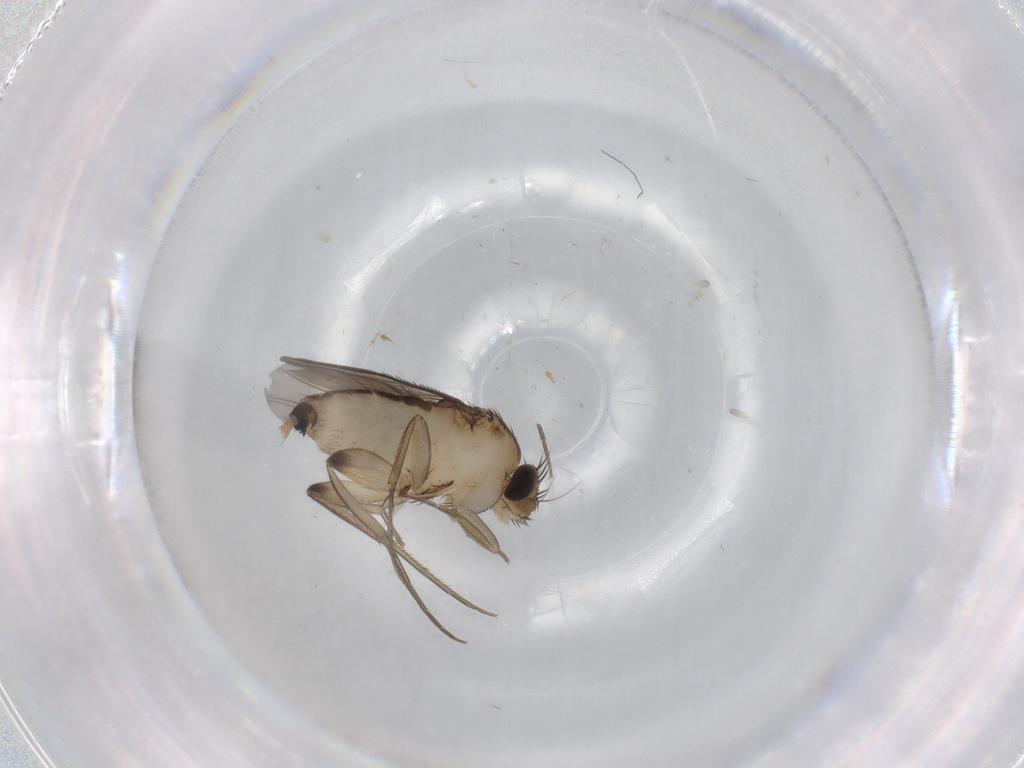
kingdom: Animalia
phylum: Arthropoda
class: Insecta
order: Diptera
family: Phoridae
